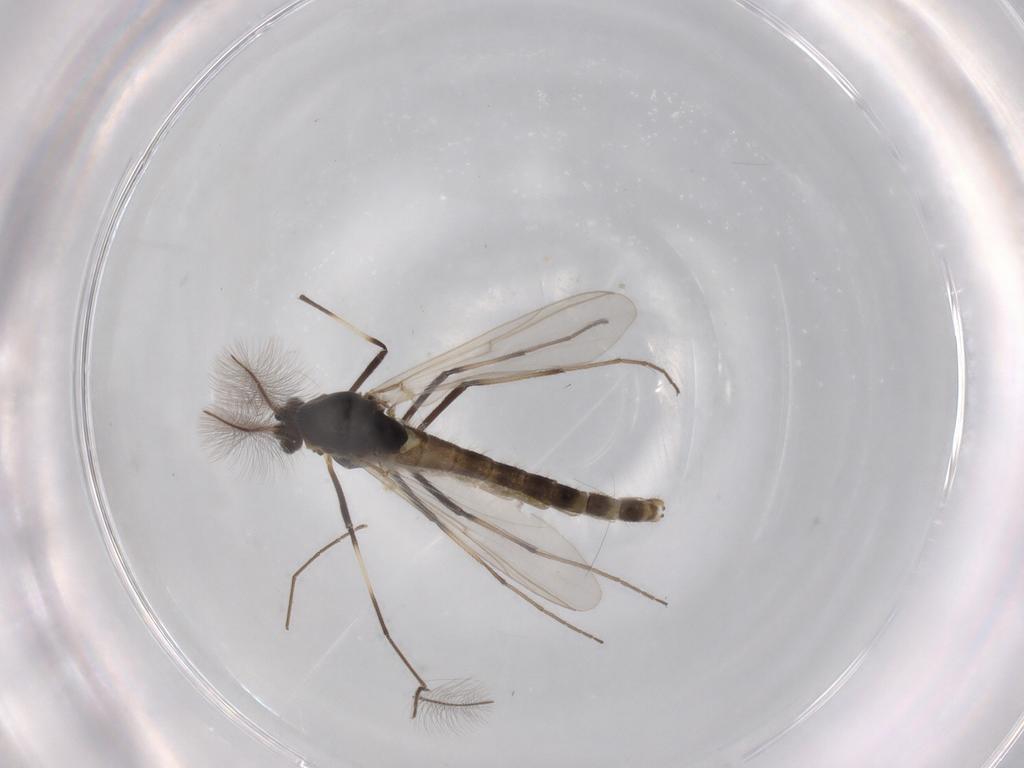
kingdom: Animalia
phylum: Arthropoda
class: Insecta
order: Diptera
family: Chironomidae
